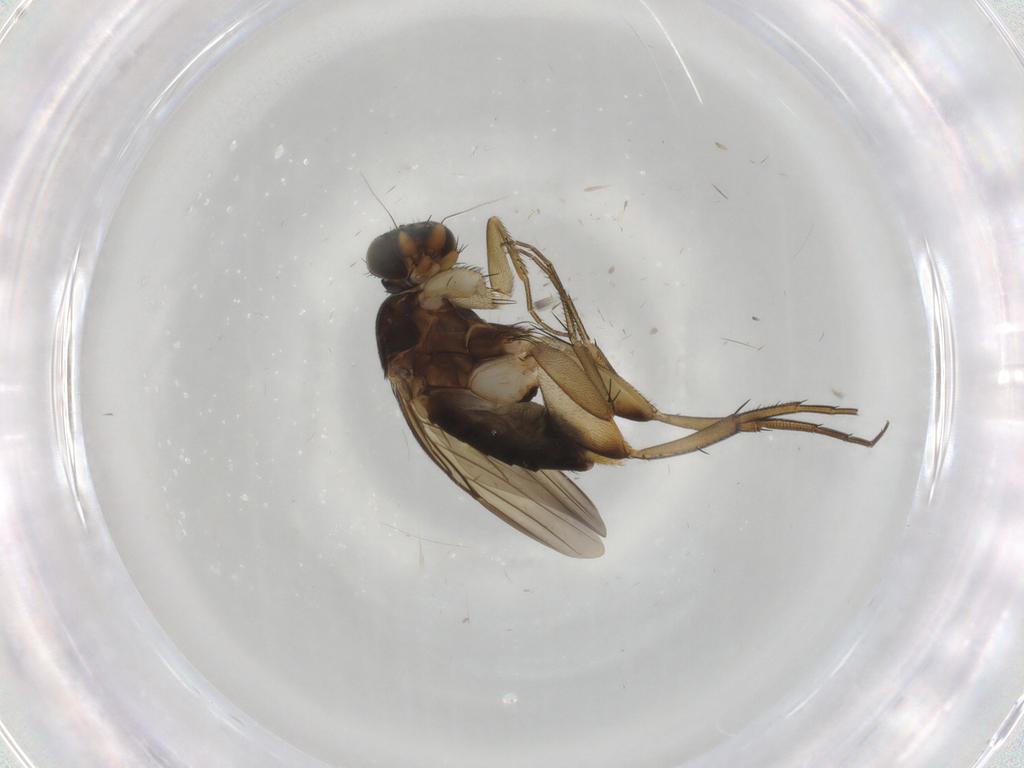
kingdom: Animalia
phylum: Arthropoda
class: Insecta
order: Diptera
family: Phoridae
